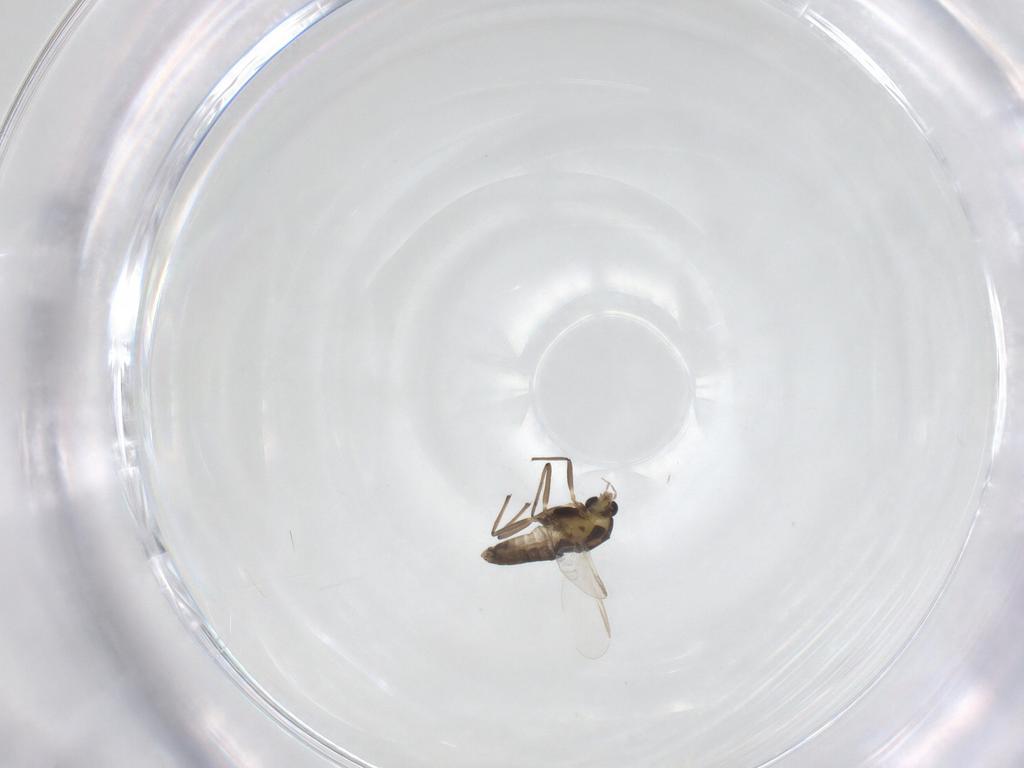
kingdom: Animalia
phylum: Arthropoda
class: Insecta
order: Diptera
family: Chironomidae
